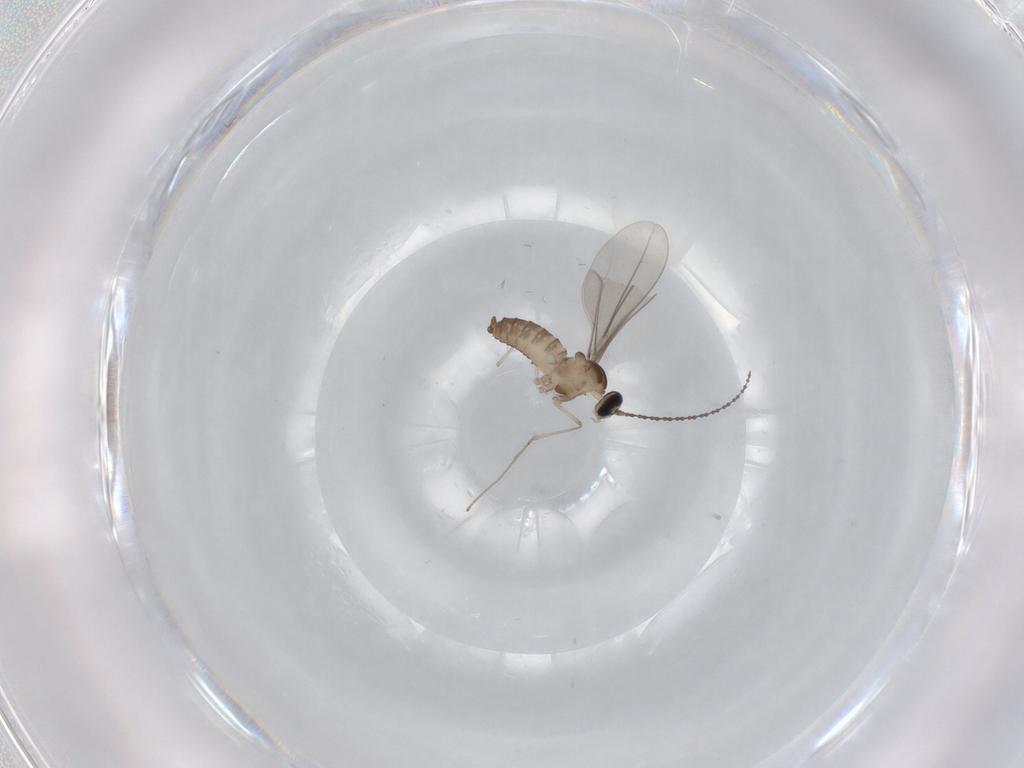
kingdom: Animalia
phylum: Arthropoda
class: Insecta
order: Diptera
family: Cecidomyiidae
